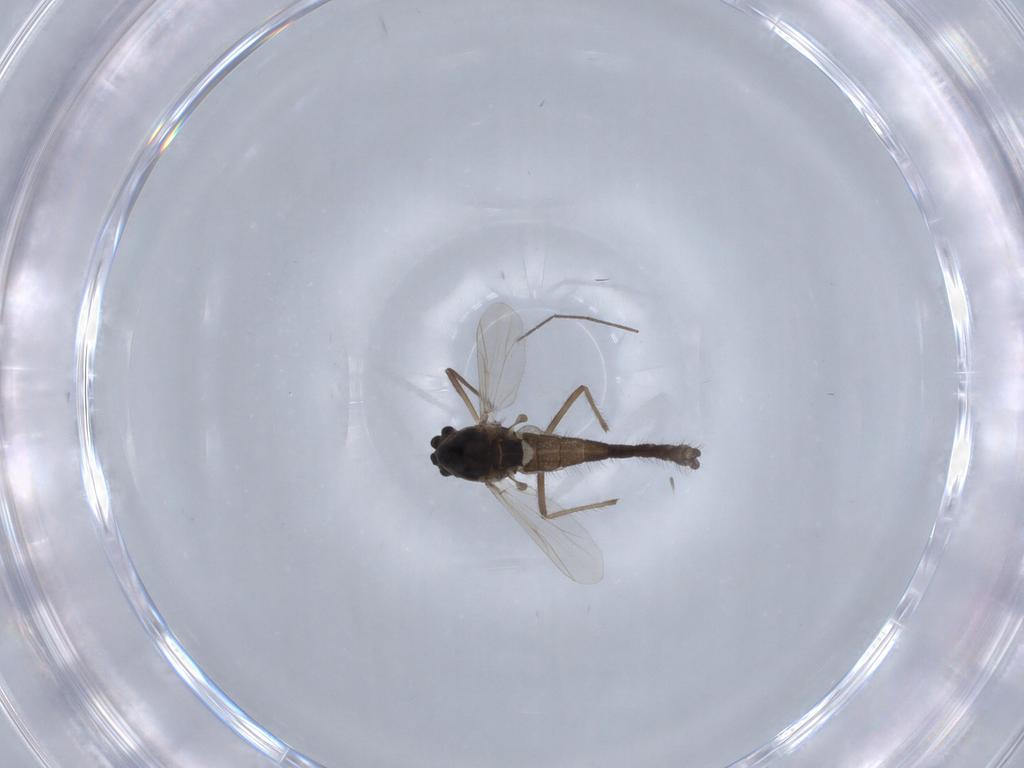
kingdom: Animalia
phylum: Arthropoda
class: Insecta
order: Diptera
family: Chironomidae
